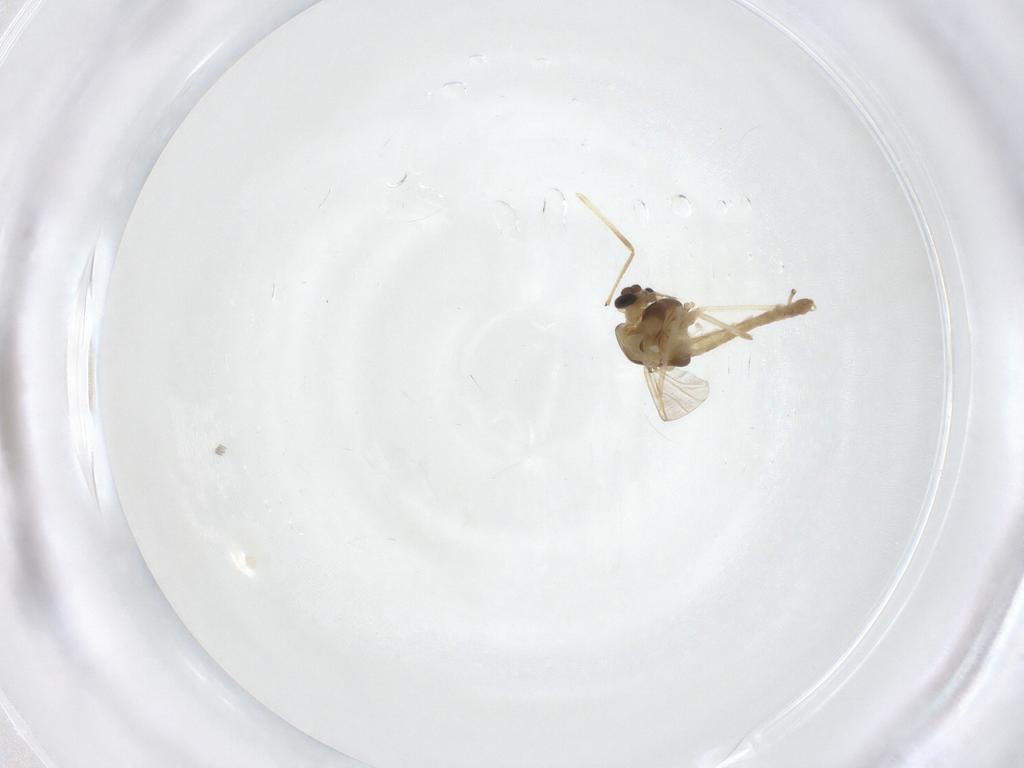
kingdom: Animalia
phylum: Arthropoda
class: Insecta
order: Diptera
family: Chironomidae
